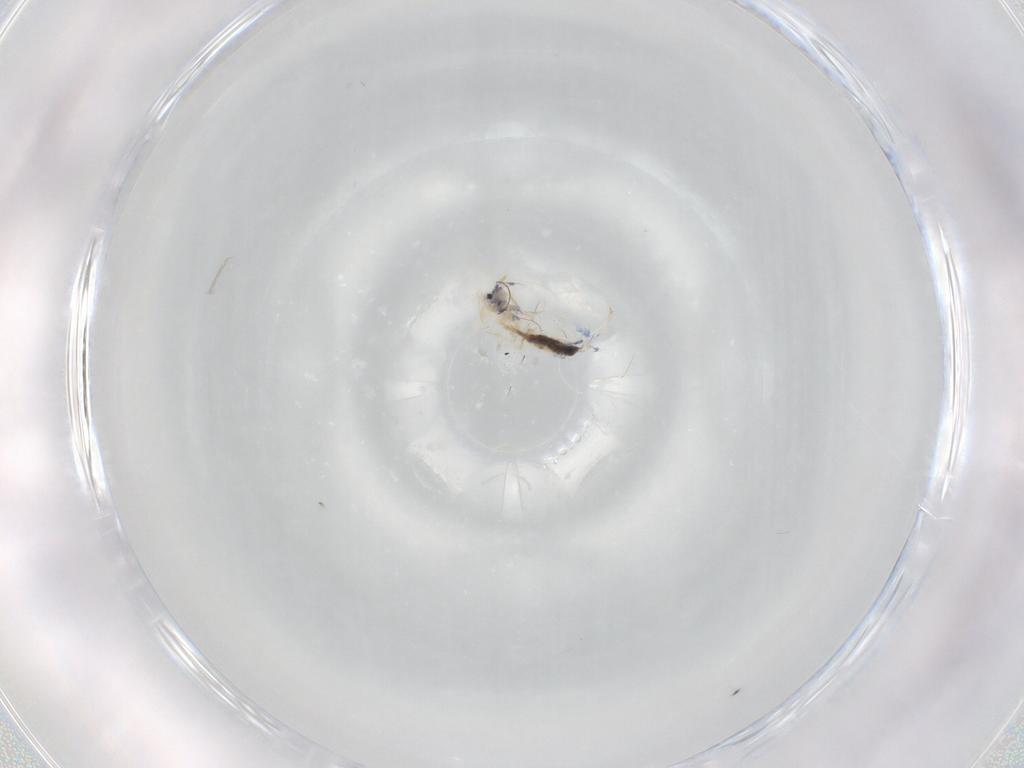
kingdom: Animalia
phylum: Arthropoda
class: Collembola
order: Entomobryomorpha
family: Entomobryidae
